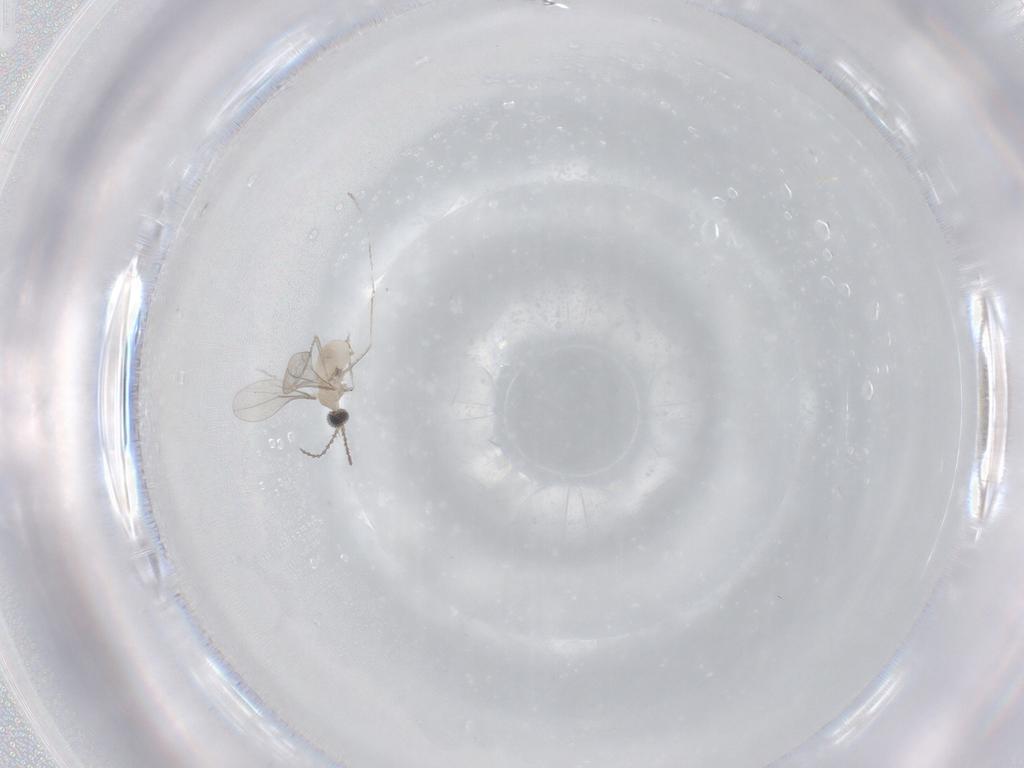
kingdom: Animalia
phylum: Arthropoda
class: Insecta
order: Diptera
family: Cecidomyiidae
